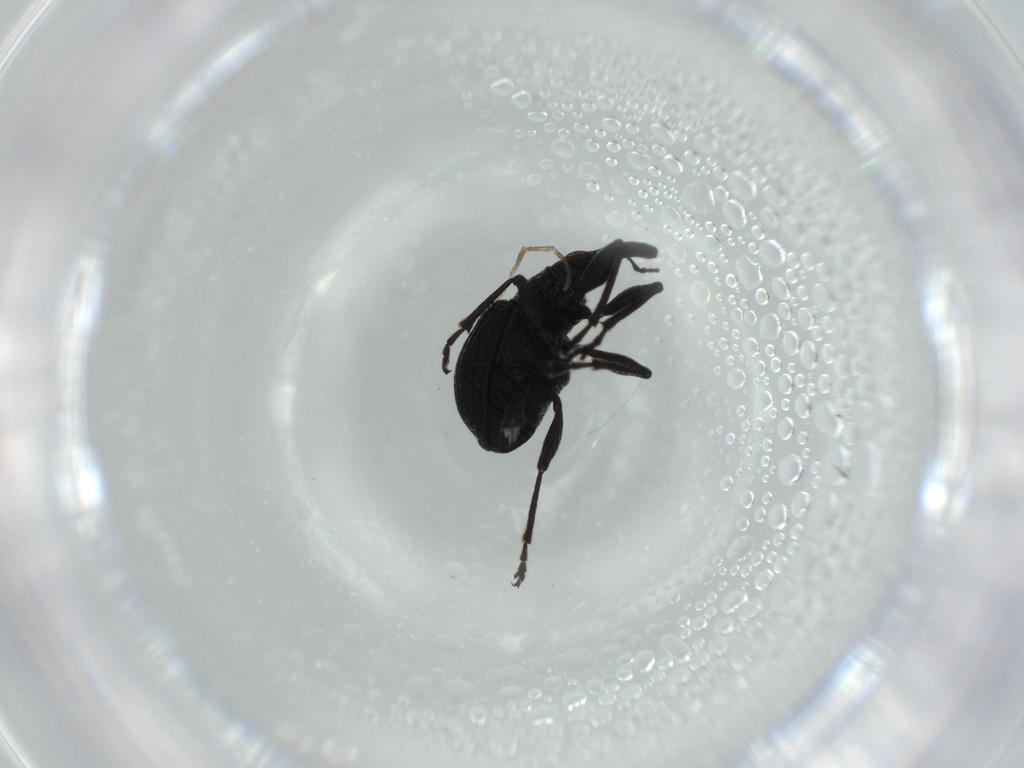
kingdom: Animalia
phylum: Arthropoda
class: Insecta
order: Coleoptera
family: Brentidae
